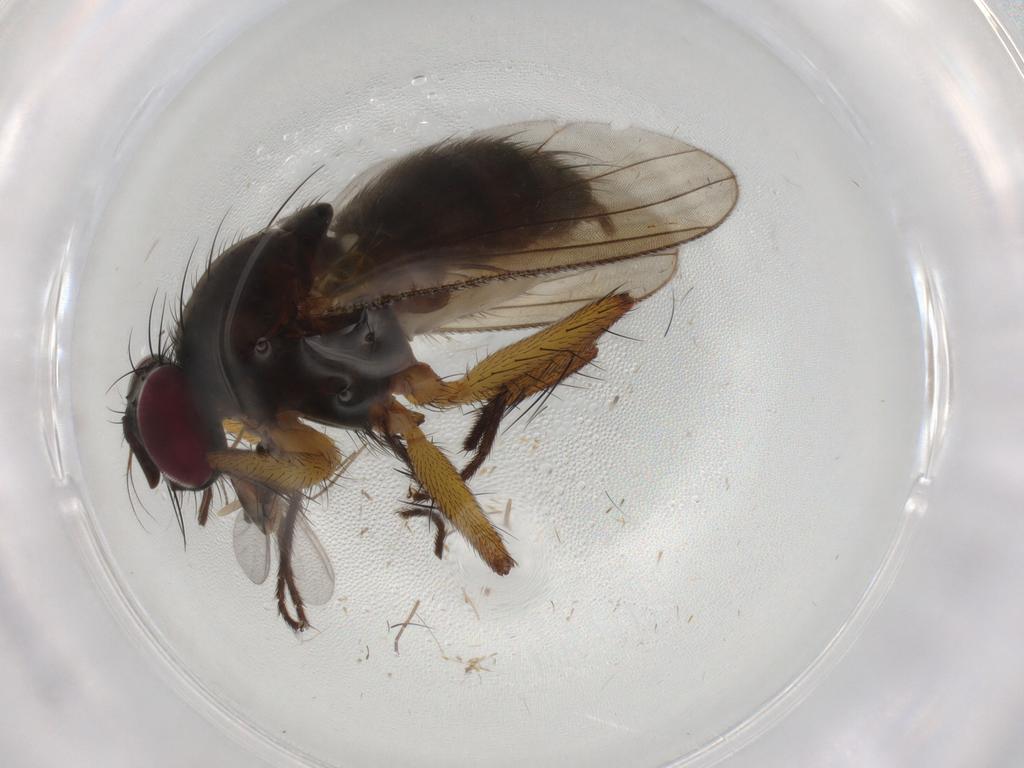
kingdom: Animalia
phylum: Arthropoda
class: Insecta
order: Diptera
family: Muscidae
